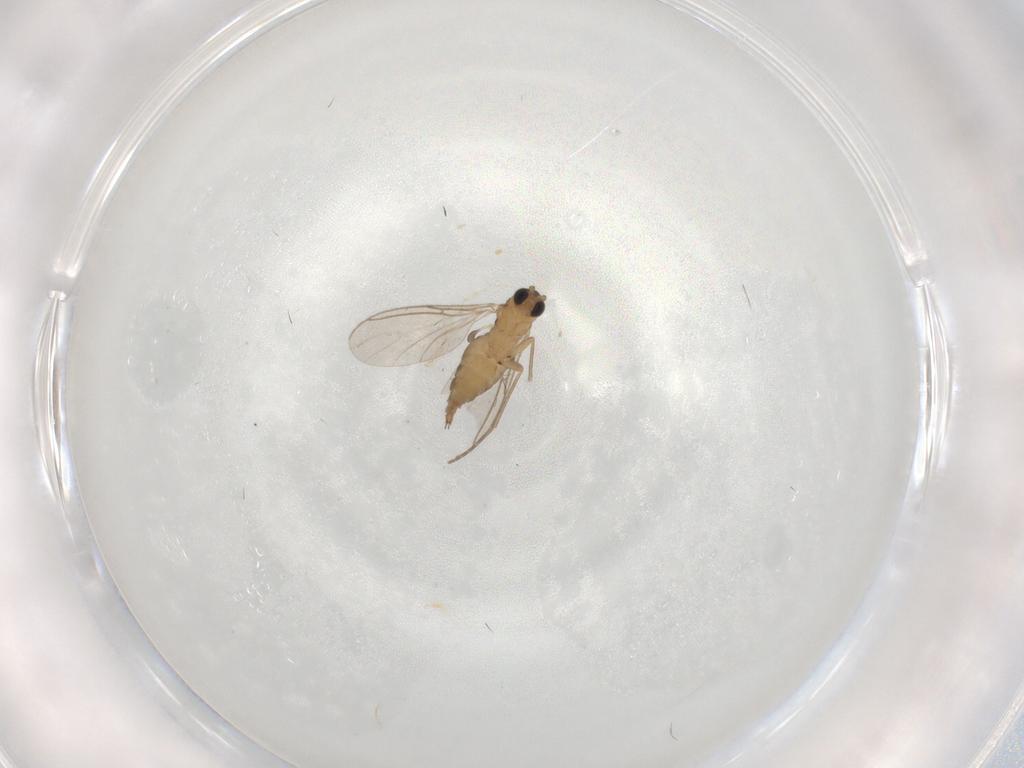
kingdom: Animalia
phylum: Arthropoda
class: Insecta
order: Diptera
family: Sciaridae
